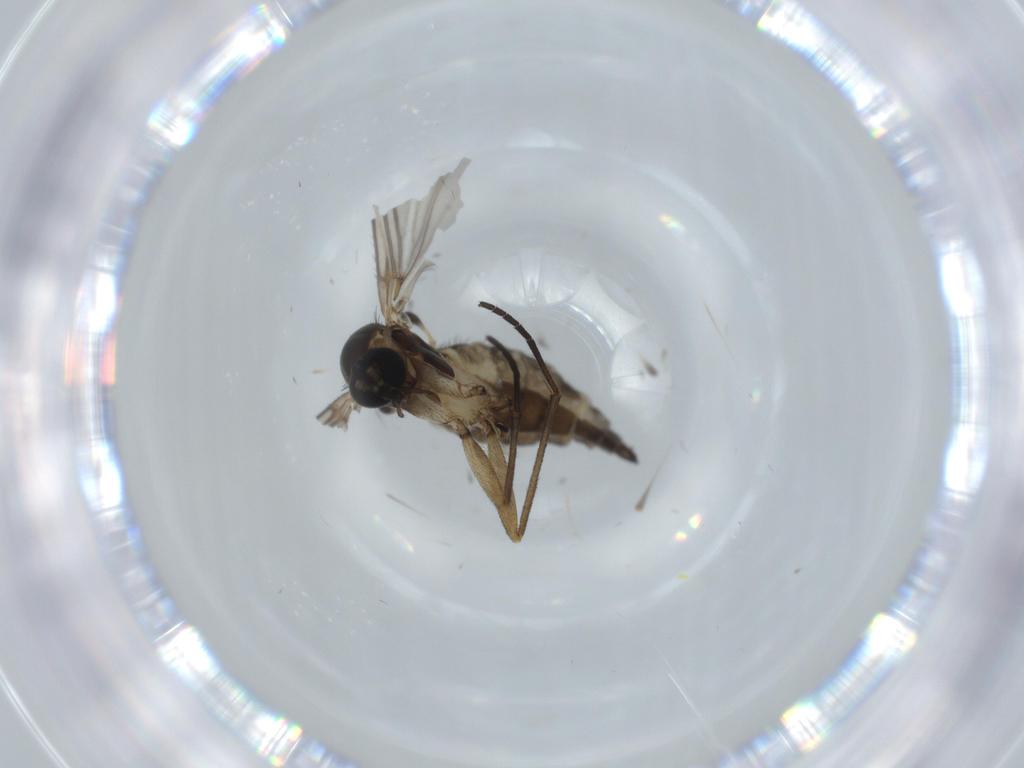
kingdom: Animalia
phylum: Arthropoda
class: Insecta
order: Diptera
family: Sciaridae
